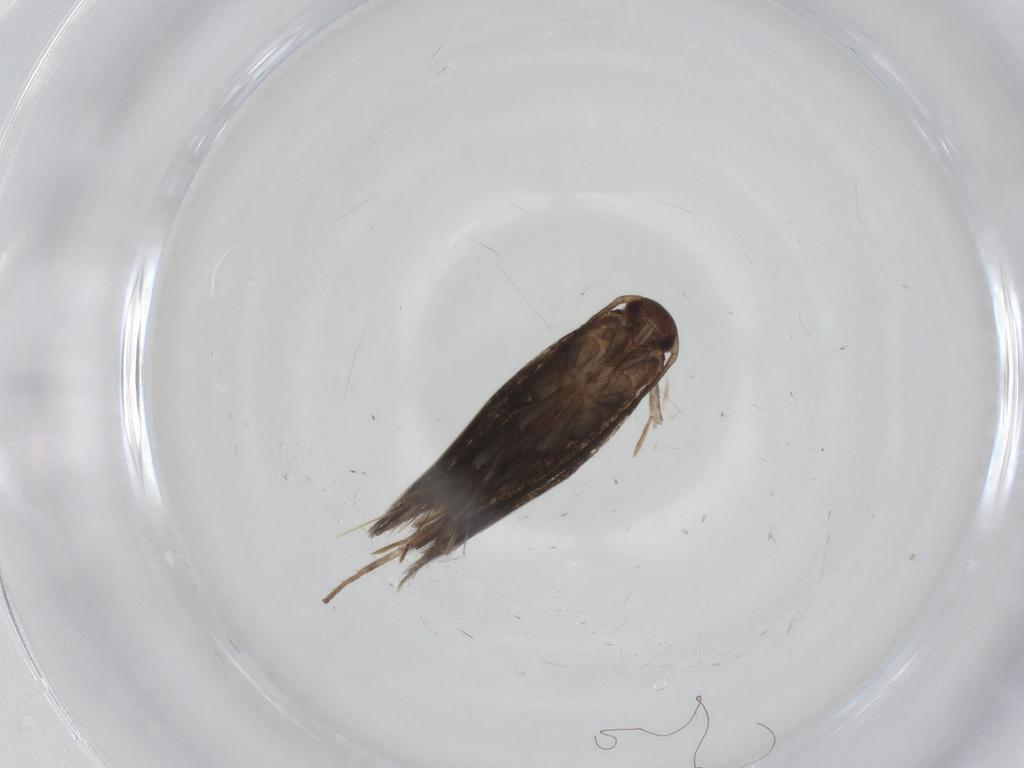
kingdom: Animalia
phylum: Arthropoda
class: Insecta
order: Lepidoptera
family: Elachistidae
